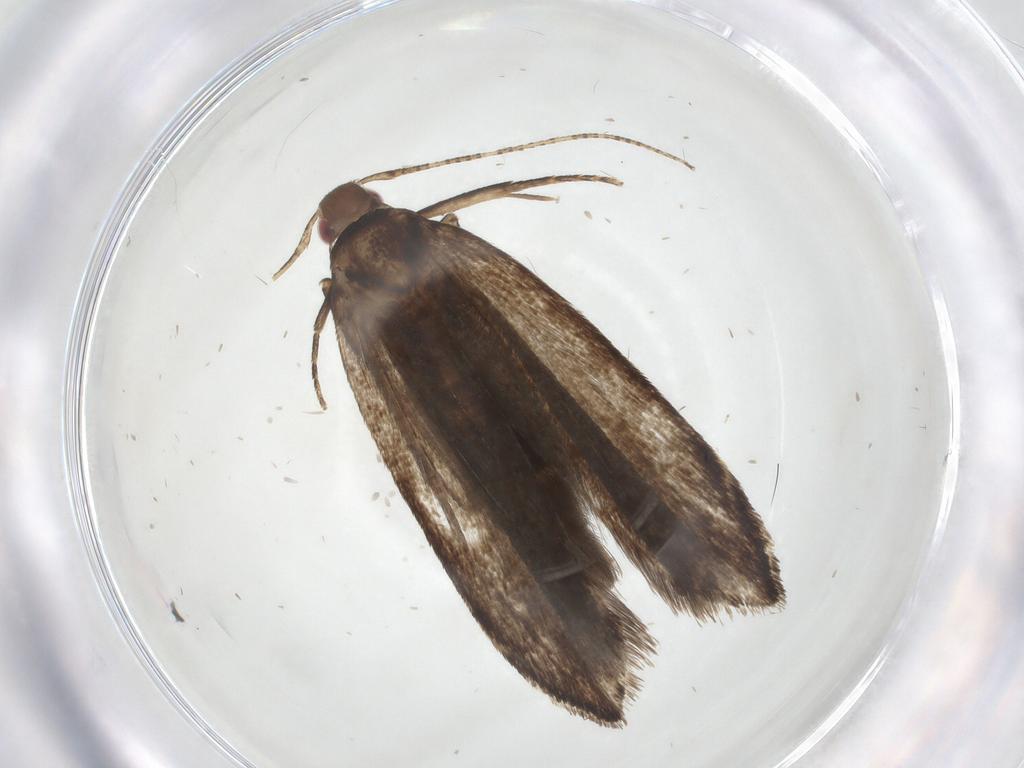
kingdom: Animalia
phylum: Arthropoda
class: Insecta
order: Lepidoptera
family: Gelechiidae
